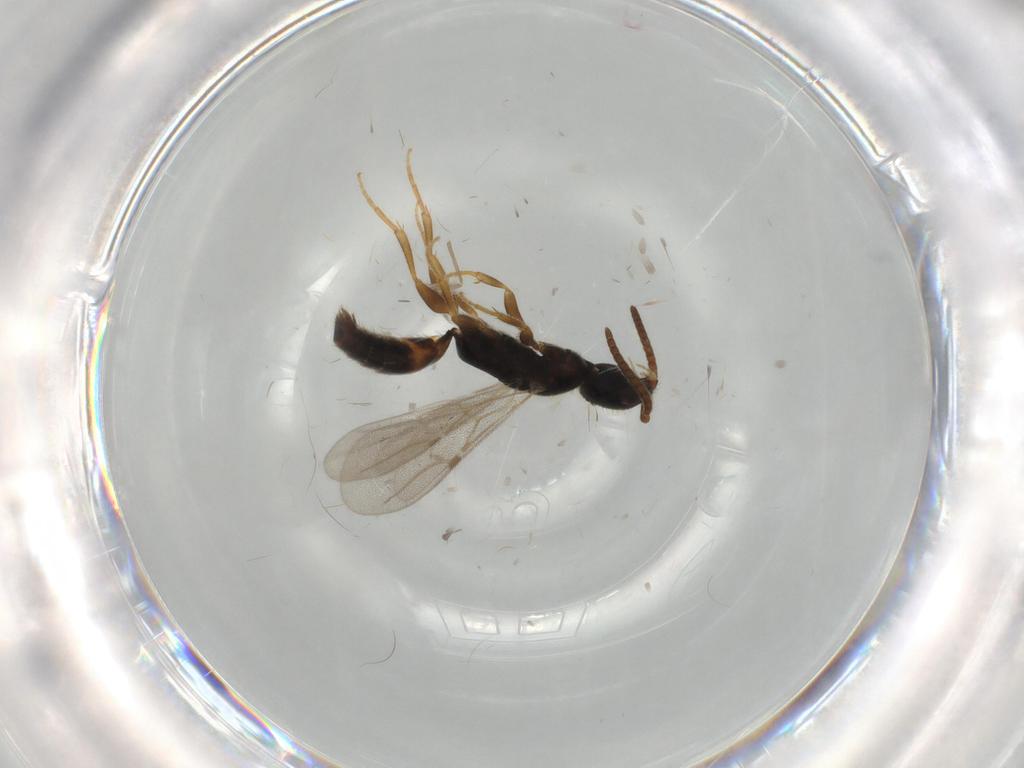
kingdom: Animalia
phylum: Arthropoda
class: Insecta
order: Hymenoptera
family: Bethylidae
